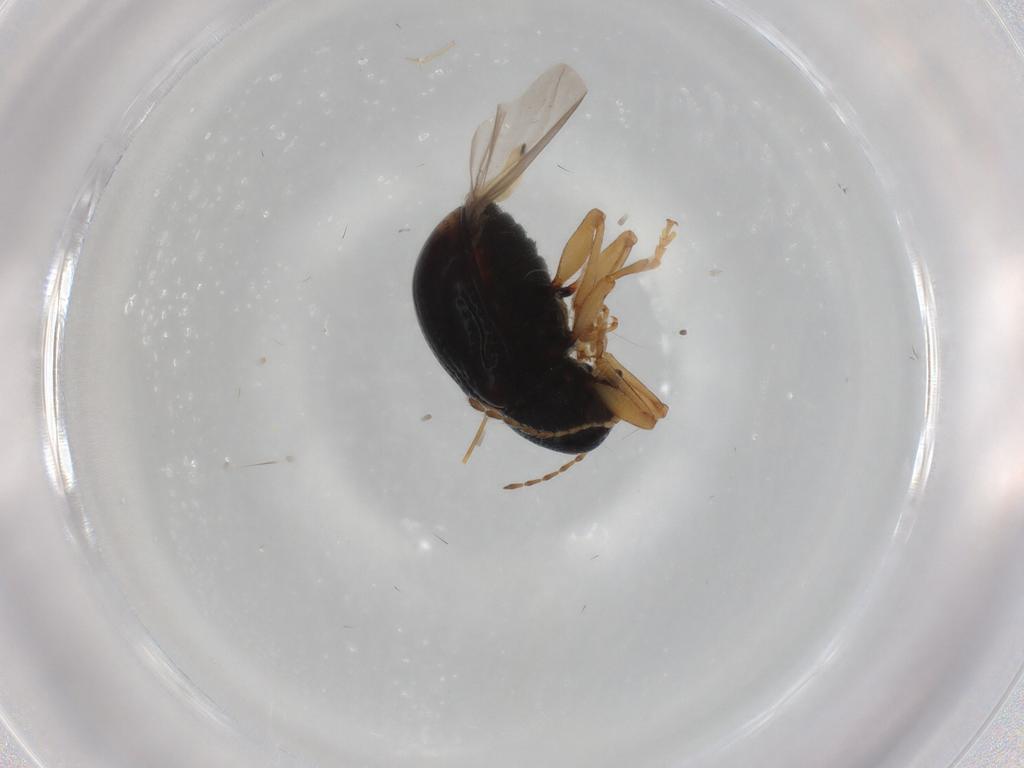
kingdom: Animalia
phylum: Arthropoda
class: Insecta
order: Coleoptera
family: Chrysomelidae
